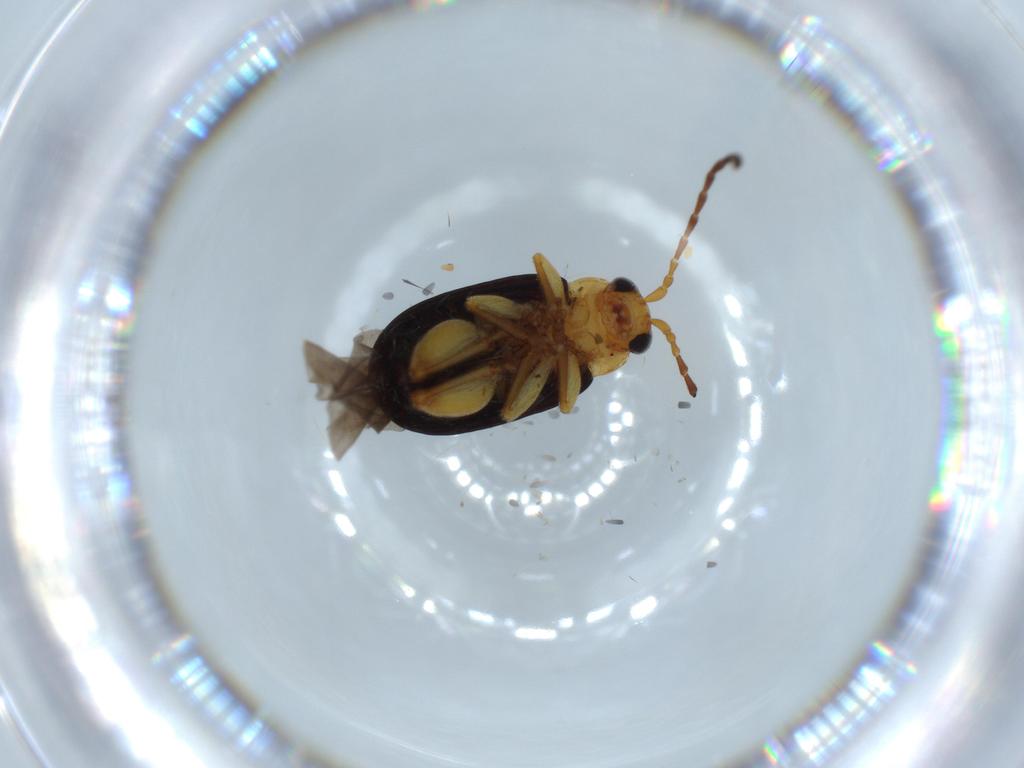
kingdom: Animalia
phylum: Arthropoda
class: Insecta
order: Coleoptera
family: Chrysomelidae
